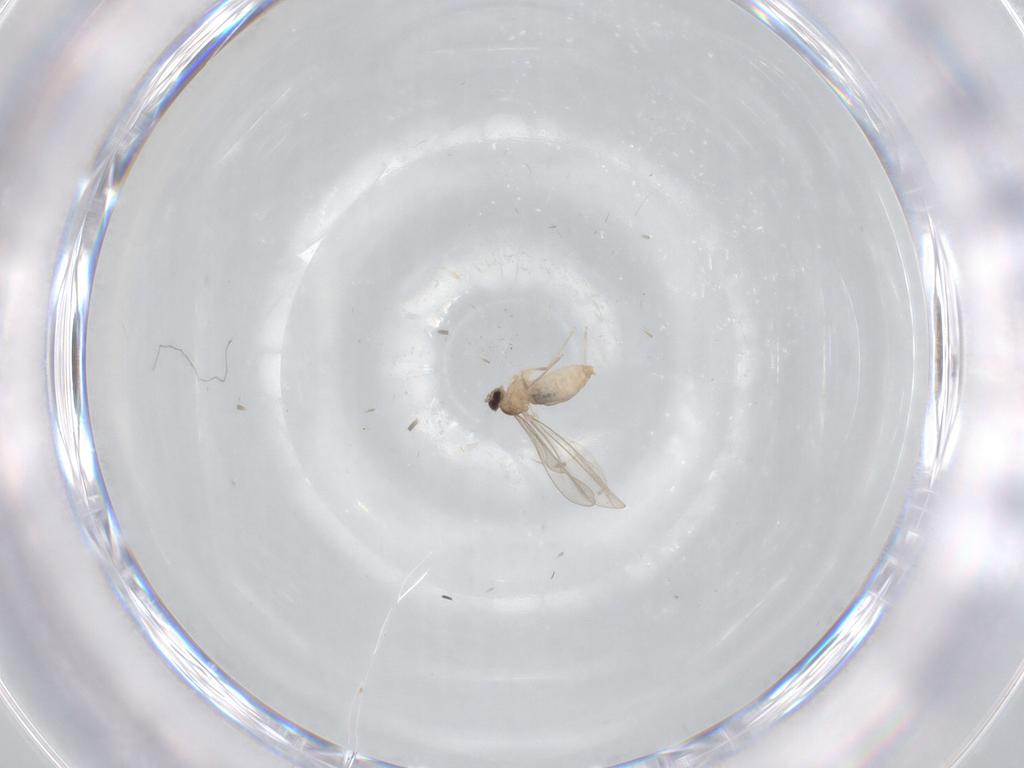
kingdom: Animalia
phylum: Arthropoda
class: Insecta
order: Diptera
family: Cecidomyiidae
